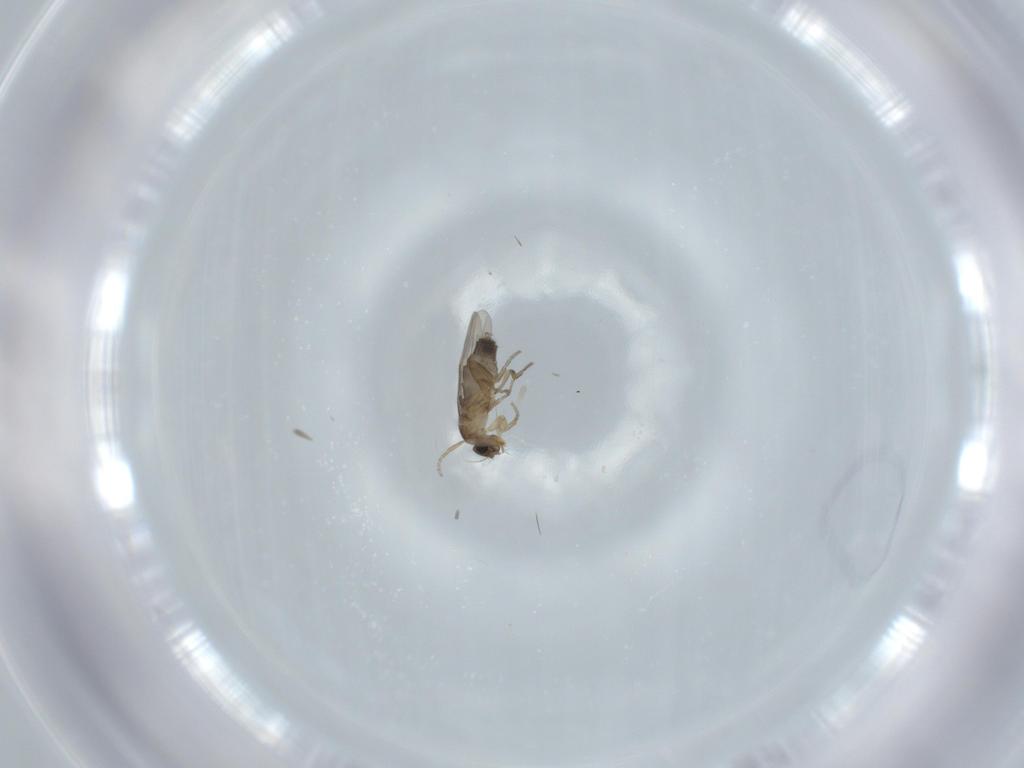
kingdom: Animalia
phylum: Arthropoda
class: Insecta
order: Diptera
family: Phoridae
